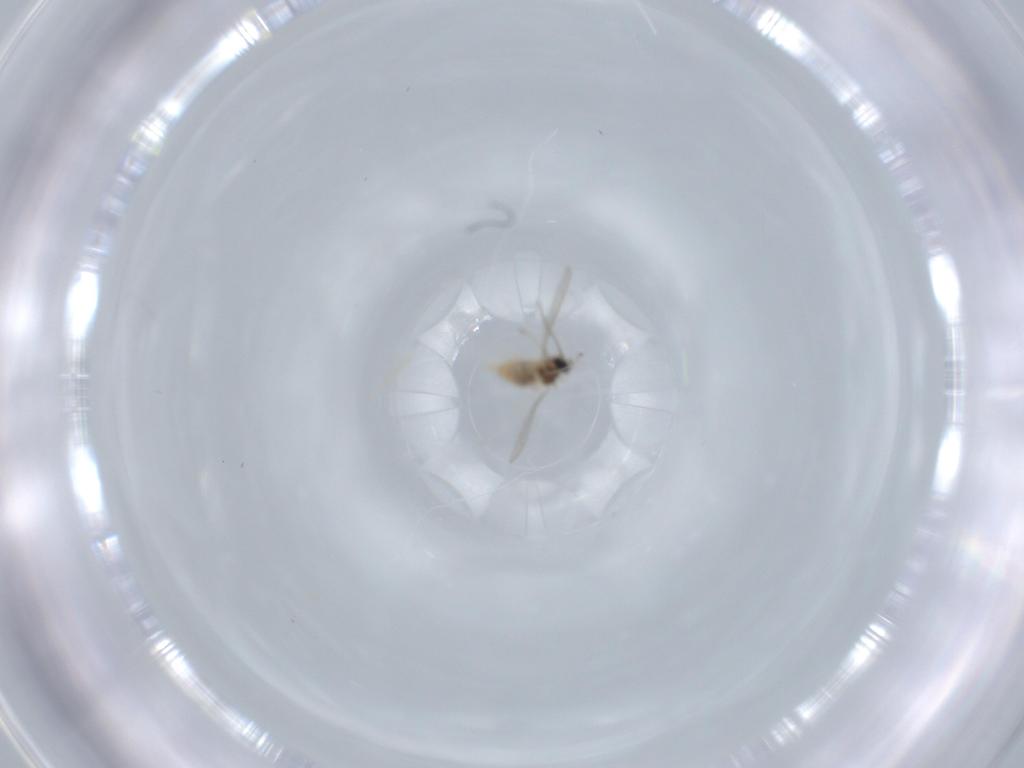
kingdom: Animalia
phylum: Arthropoda
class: Insecta
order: Diptera
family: Cecidomyiidae
